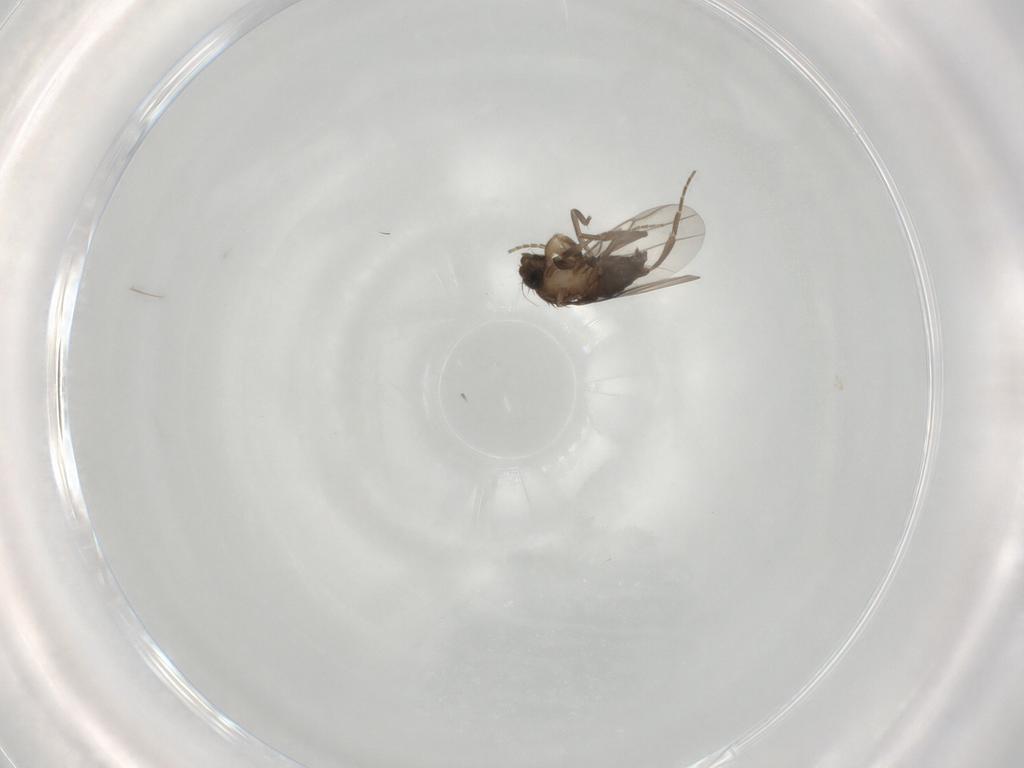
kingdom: Animalia
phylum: Arthropoda
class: Insecta
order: Diptera
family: Phoridae
